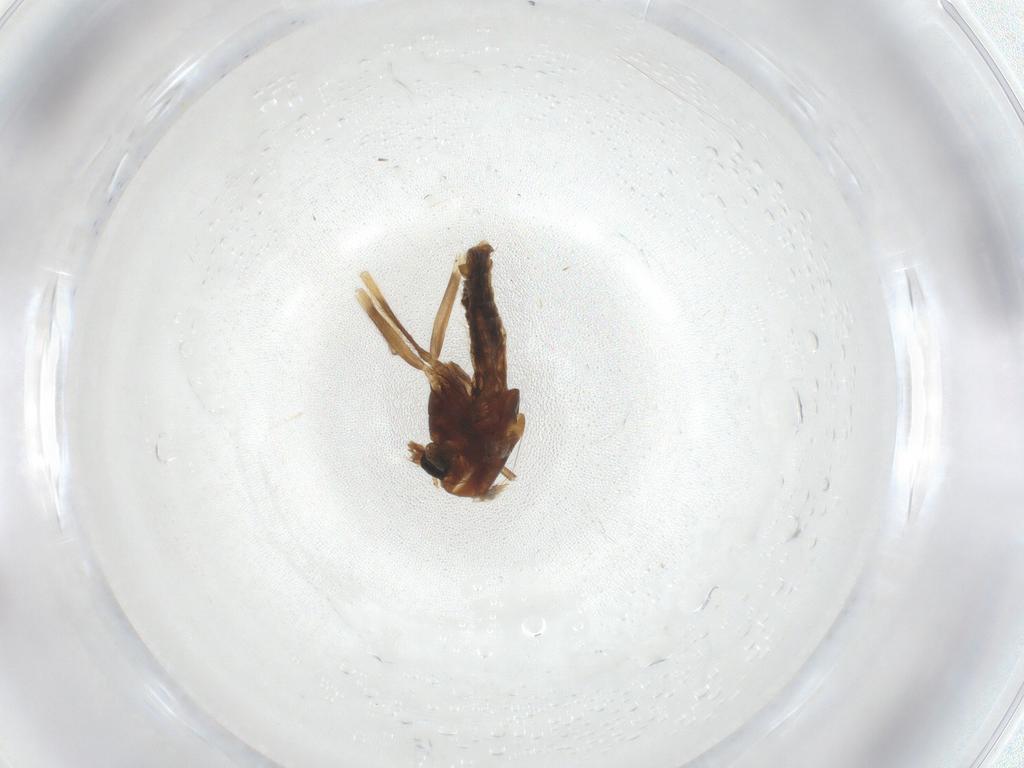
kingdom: Animalia
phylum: Arthropoda
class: Insecta
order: Diptera
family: Chironomidae
